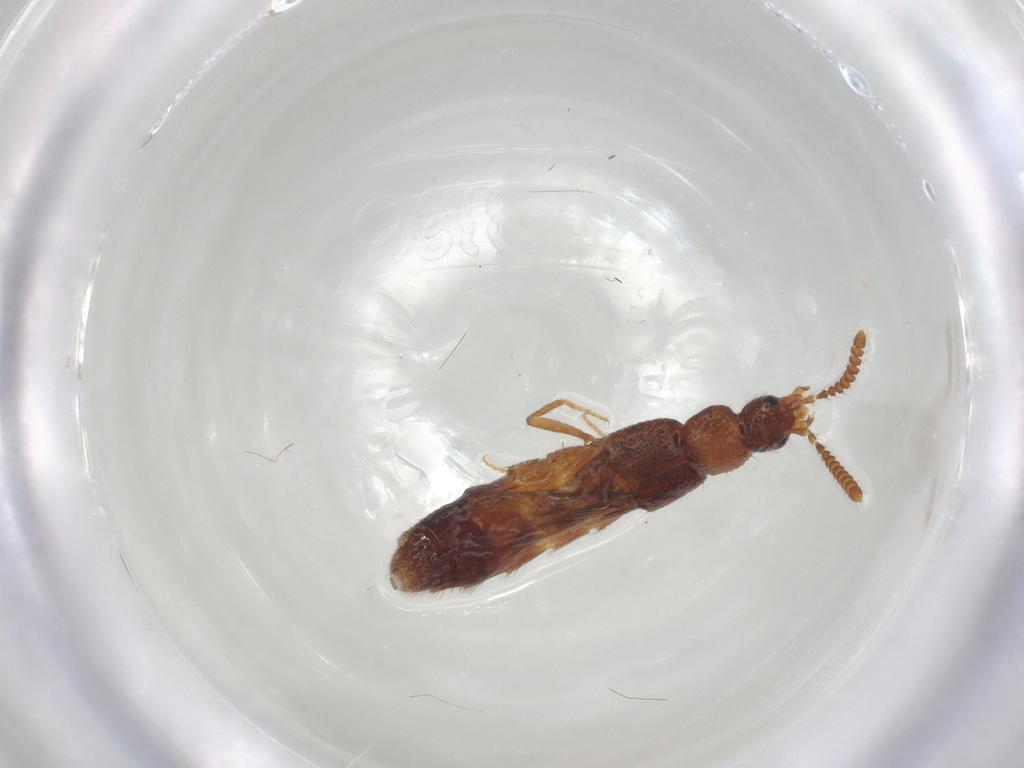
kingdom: Animalia
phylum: Arthropoda
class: Insecta
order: Coleoptera
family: Staphylinidae
